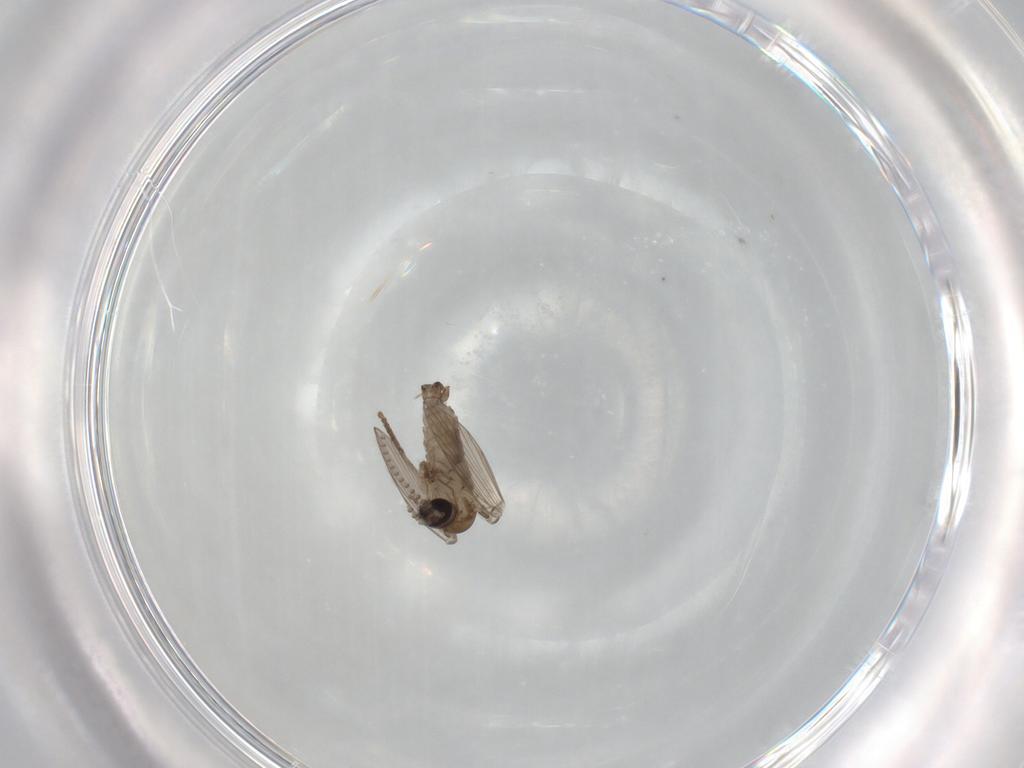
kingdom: Animalia
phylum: Arthropoda
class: Insecta
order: Diptera
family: Psychodidae
